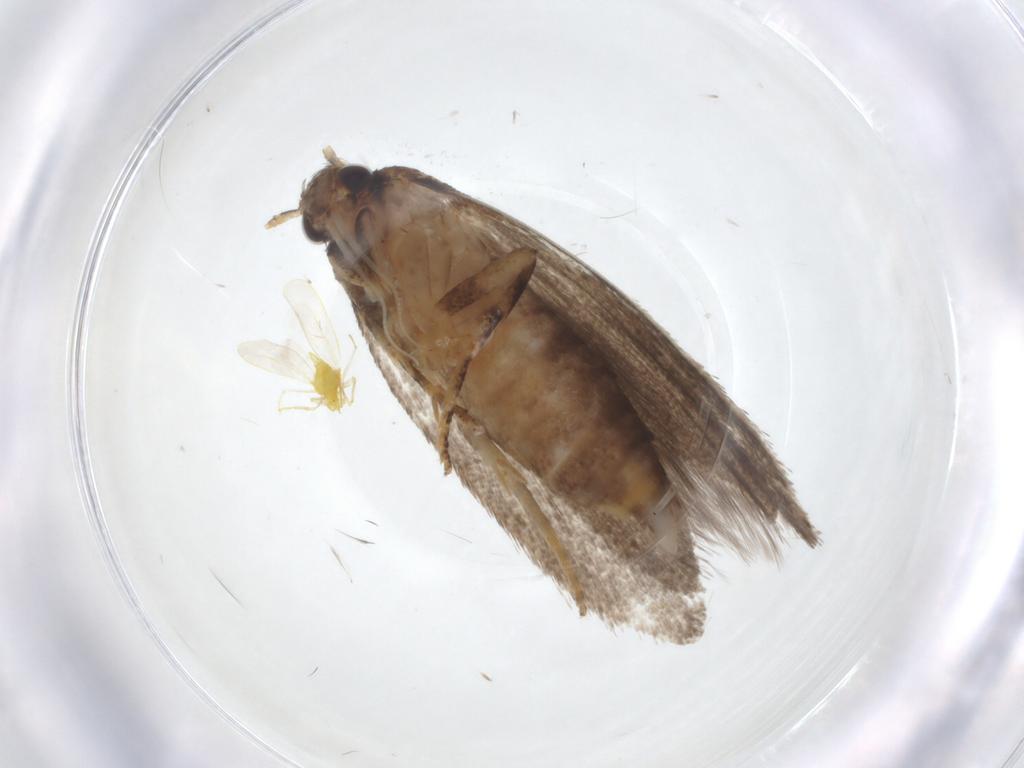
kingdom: Animalia
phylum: Arthropoda
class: Insecta
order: Lepidoptera
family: Oecophoridae
